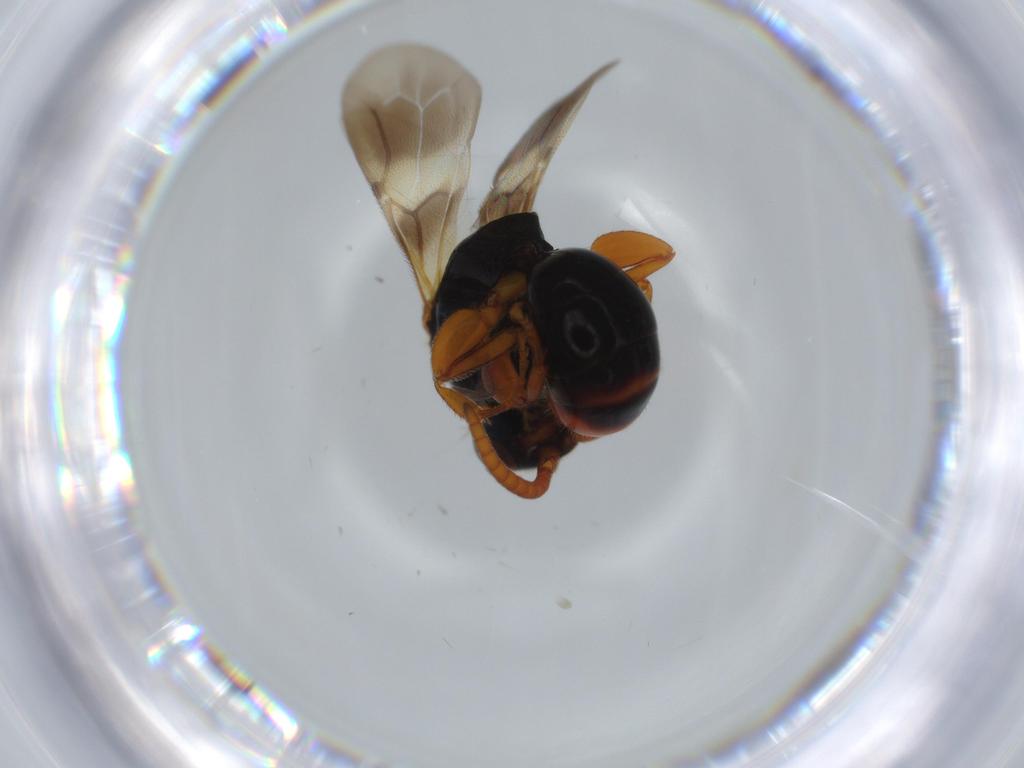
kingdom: Animalia
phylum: Arthropoda
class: Insecta
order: Hymenoptera
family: Bethylidae
